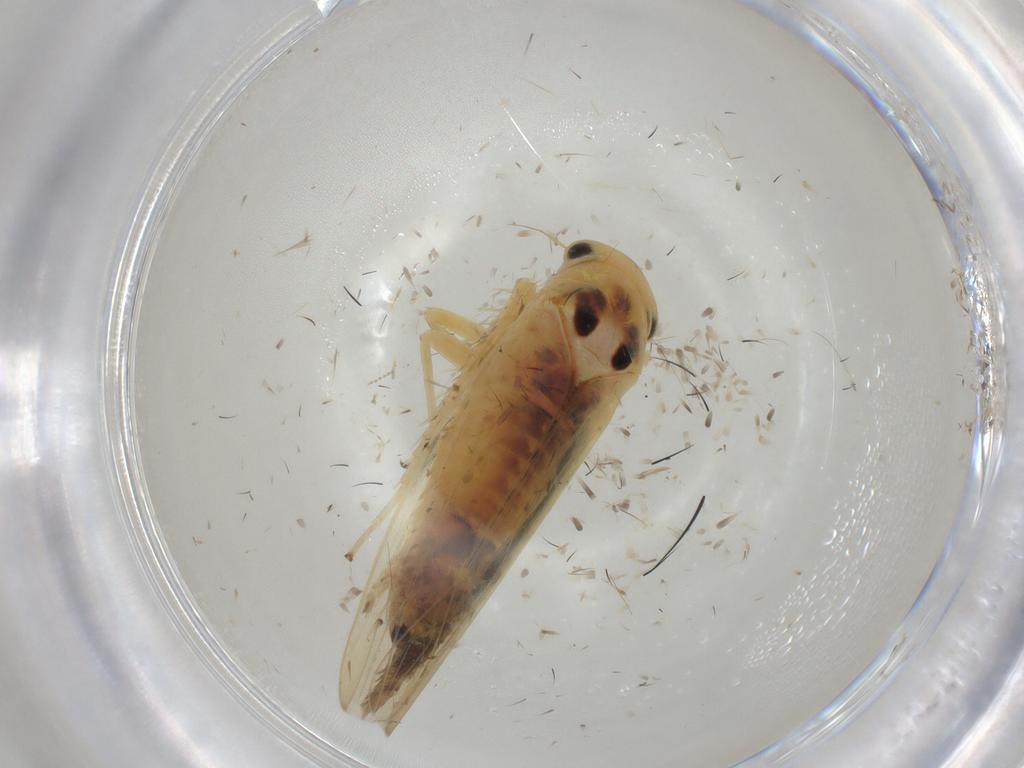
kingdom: Animalia
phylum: Arthropoda
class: Insecta
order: Hemiptera
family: Cicadellidae
